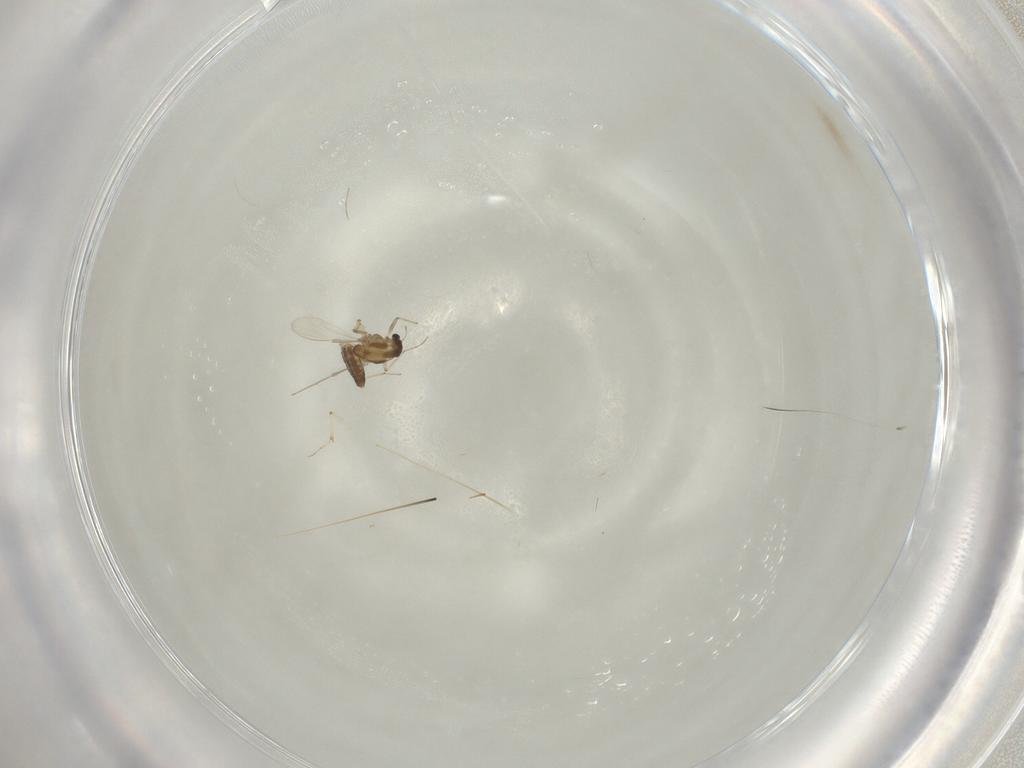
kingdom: Animalia
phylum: Arthropoda
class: Insecta
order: Diptera
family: Chironomidae
